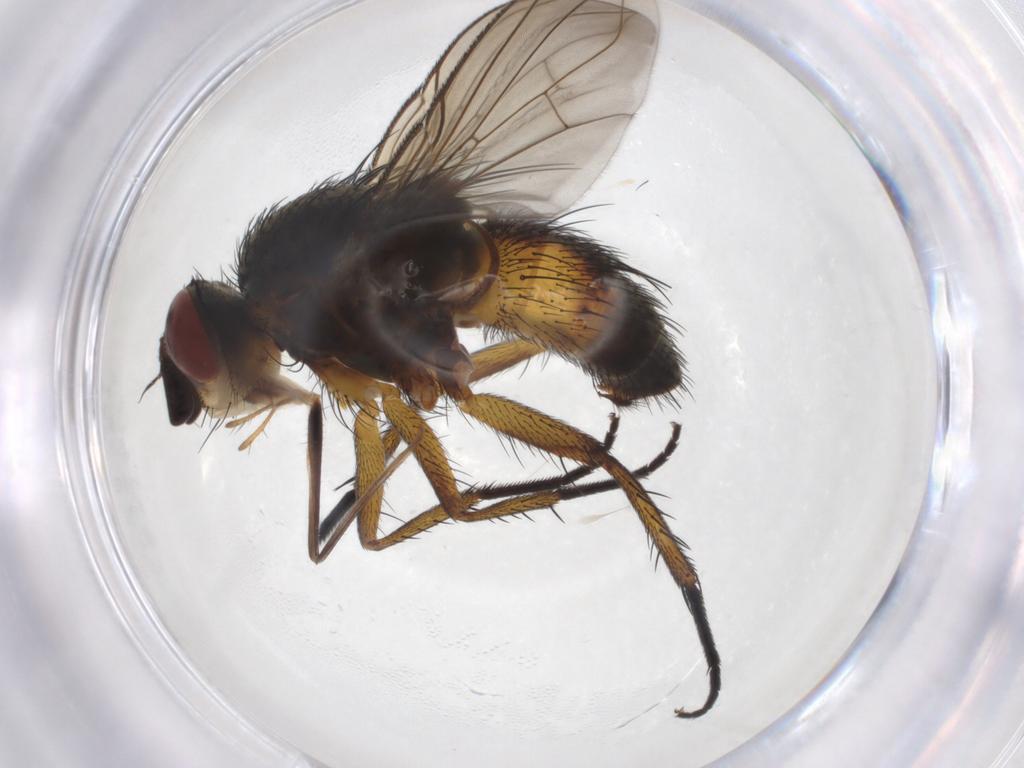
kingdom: Animalia
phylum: Arthropoda
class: Insecta
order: Diptera
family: Tachinidae
